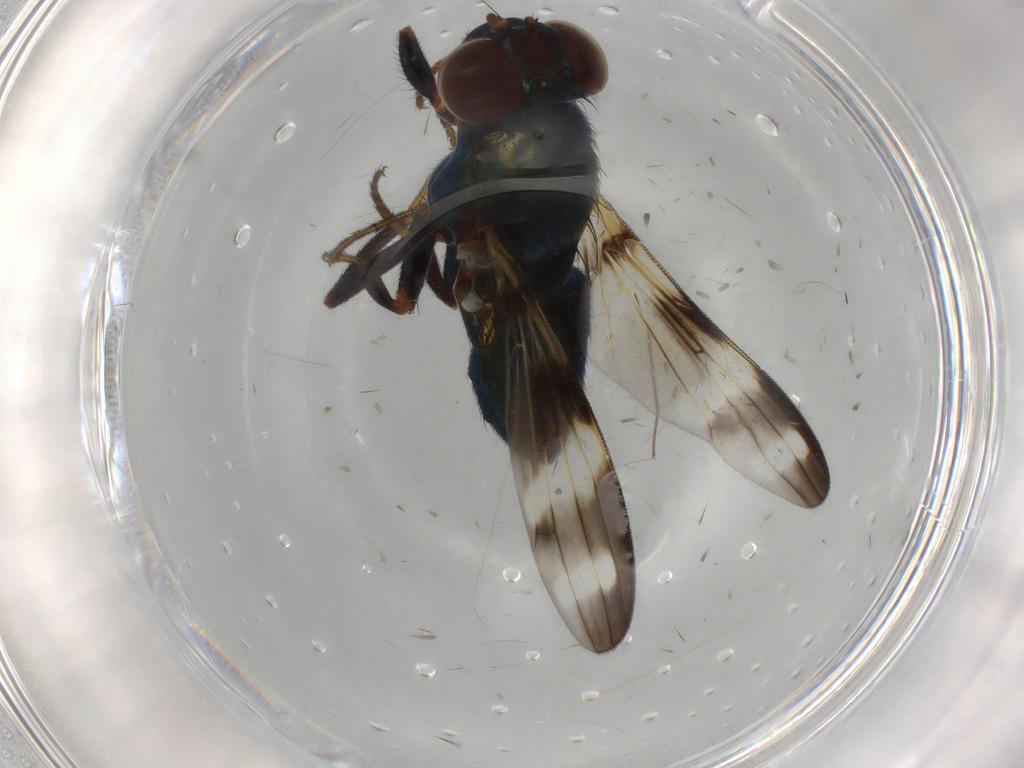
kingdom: Animalia
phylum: Arthropoda
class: Insecta
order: Diptera
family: Ulidiidae
